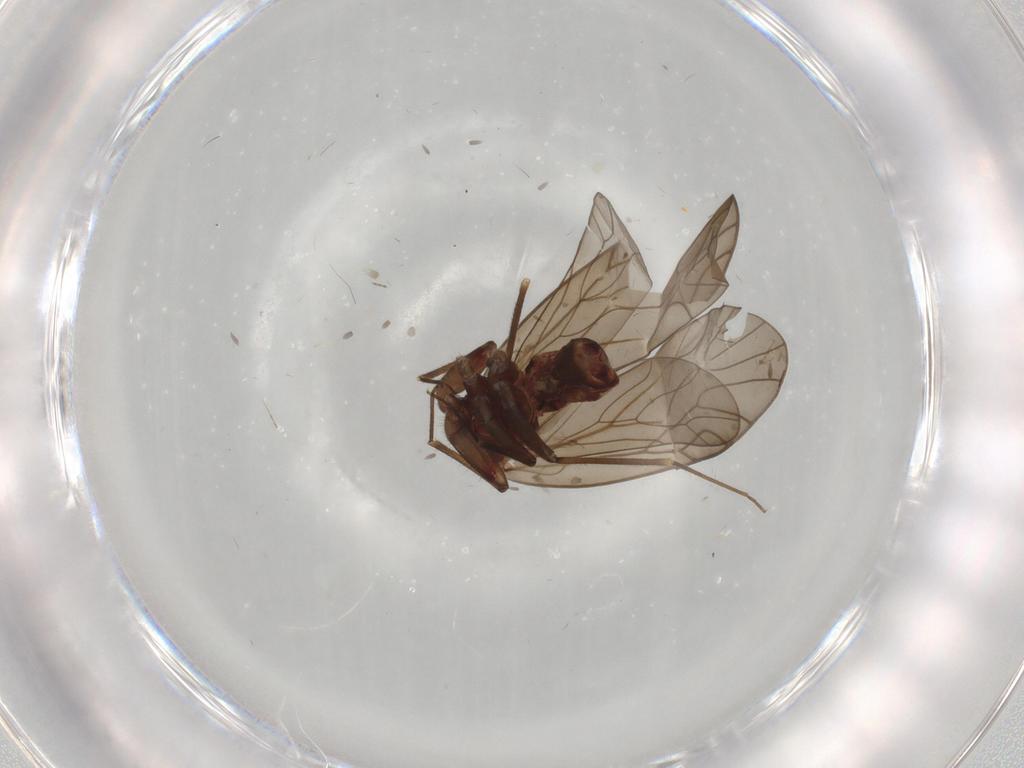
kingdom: Animalia
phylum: Arthropoda
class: Insecta
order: Psocodea
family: Philotarsidae
